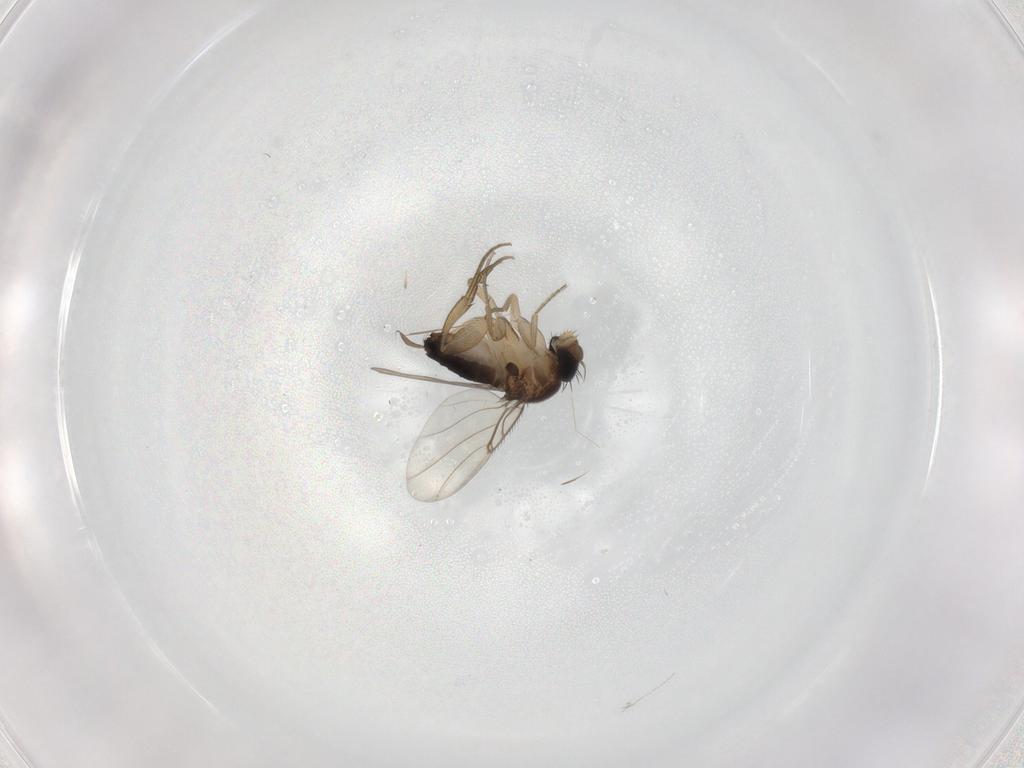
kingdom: Animalia
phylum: Arthropoda
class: Insecta
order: Diptera
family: Phoridae
